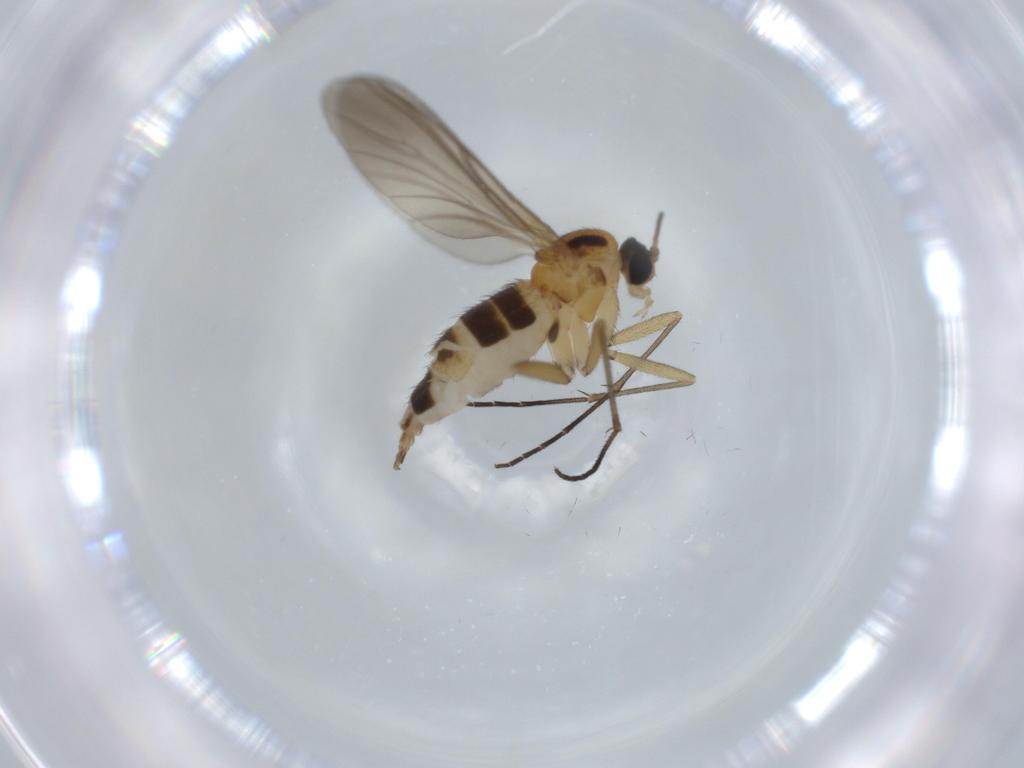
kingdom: Animalia
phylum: Arthropoda
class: Insecta
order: Diptera
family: Sciaridae
